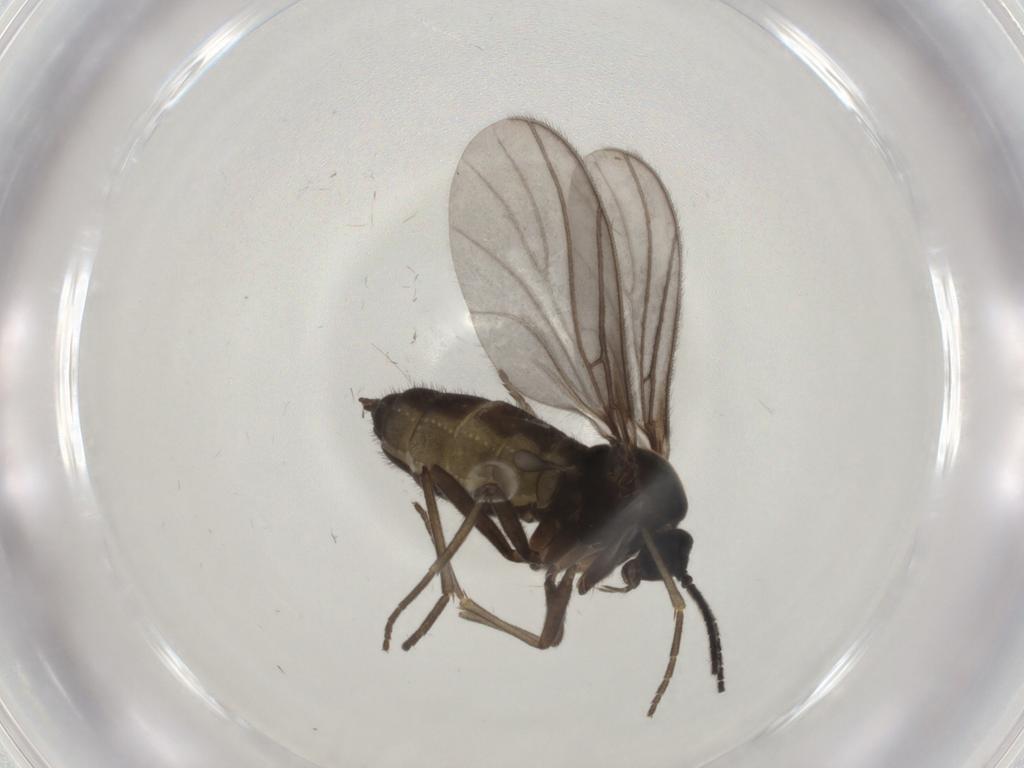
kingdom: Animalia
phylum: Arthropoda
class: Insecta
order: Diptera
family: Sciaridae
